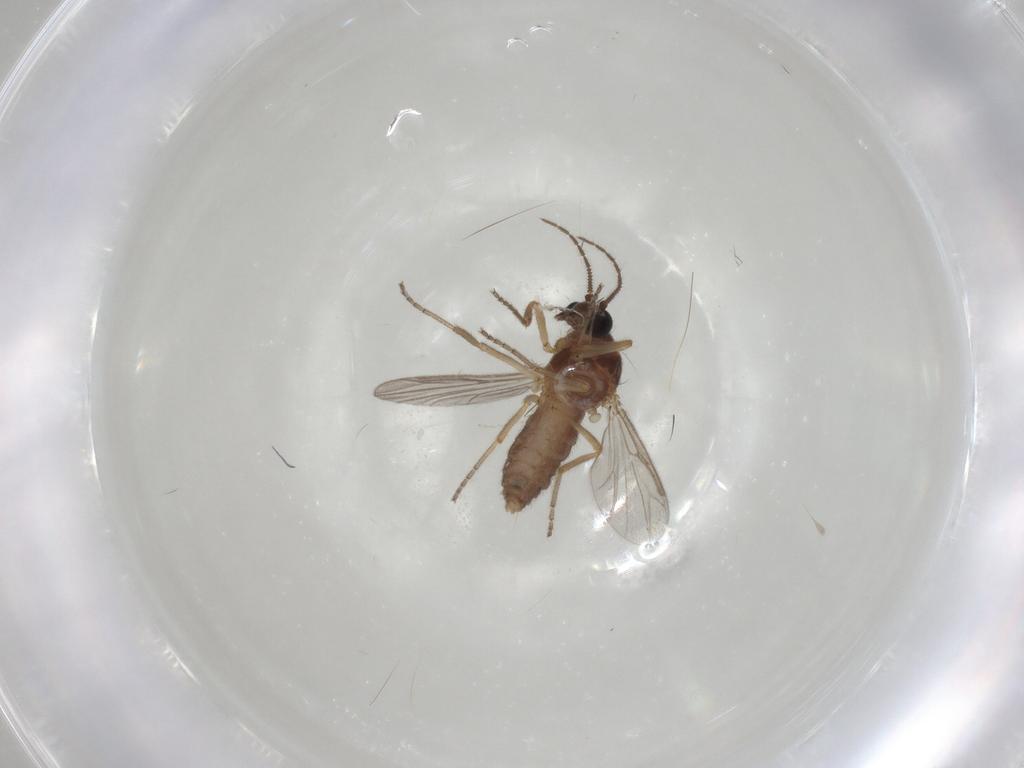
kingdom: Animalia
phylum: Arthropoda
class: Insecta
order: Diptera
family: Ceratopogonidae
